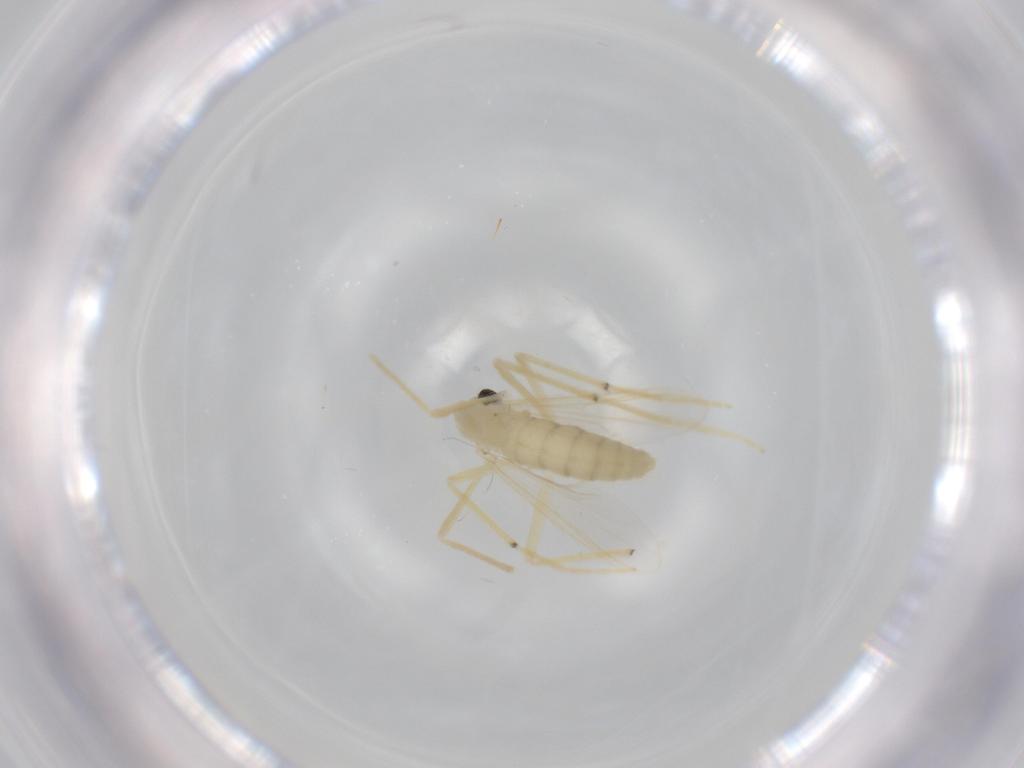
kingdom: Animalia
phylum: Arthropoda
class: Insecta
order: Diptera
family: Chironomidae
